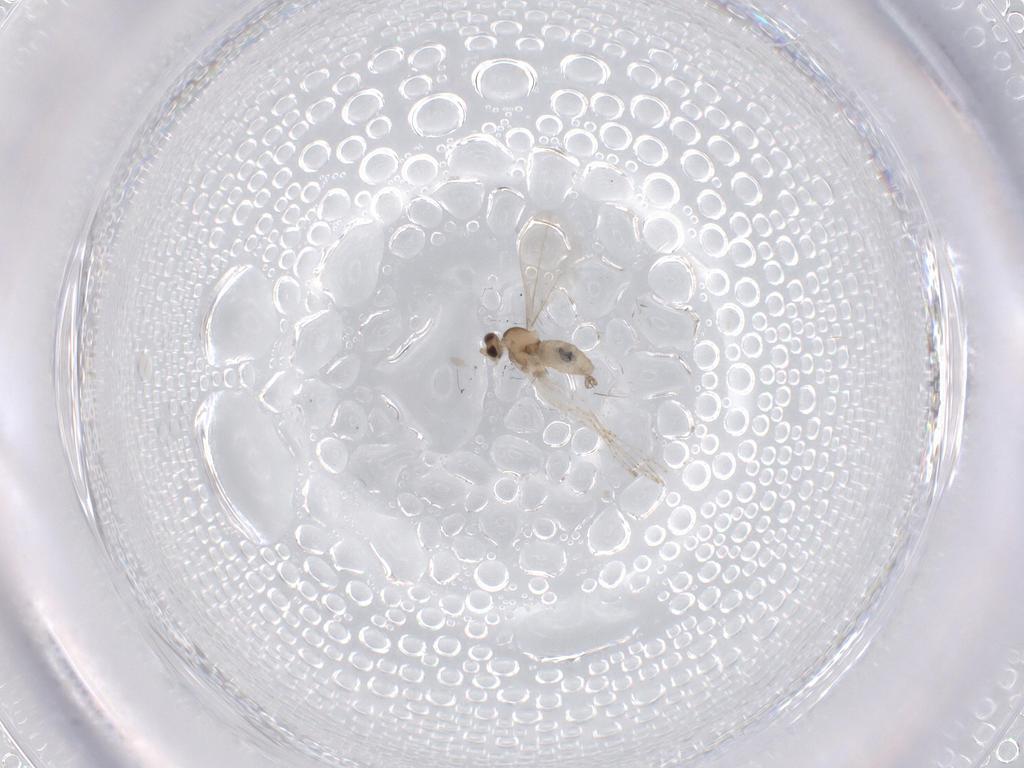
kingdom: Animalia
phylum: Arthropoda
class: Insecta
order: Diptera
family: Cecidomyiidae
